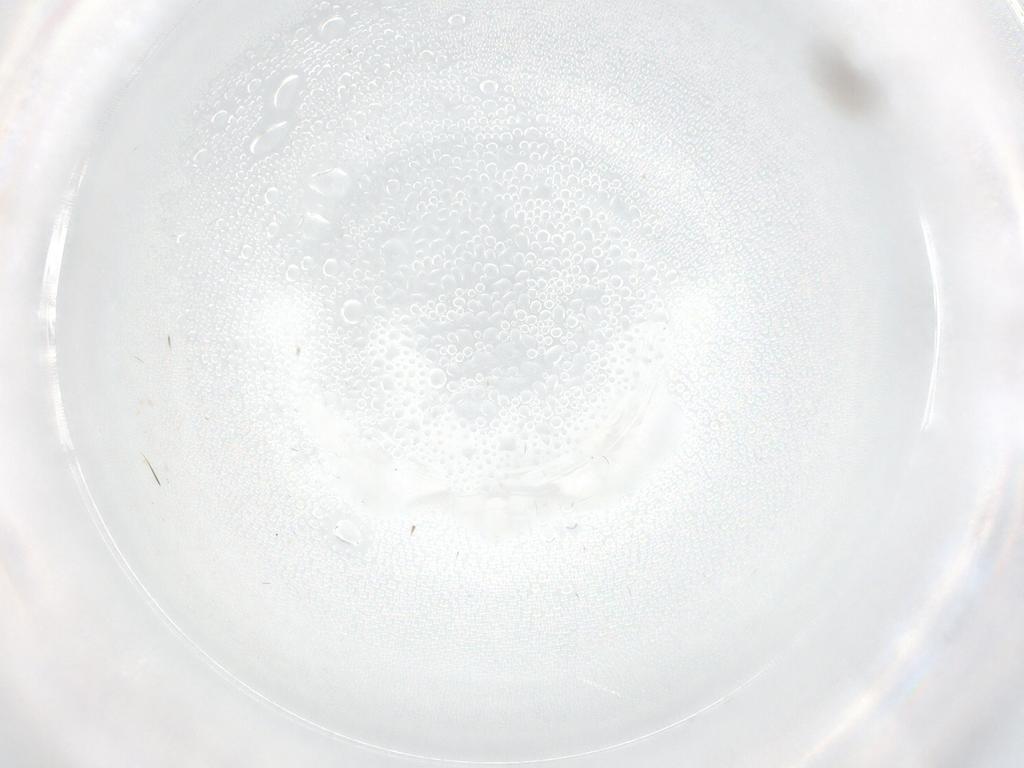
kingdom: Animalia
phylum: Arthropoda
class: Insecta
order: Diptera
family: Cecidomyiidae
